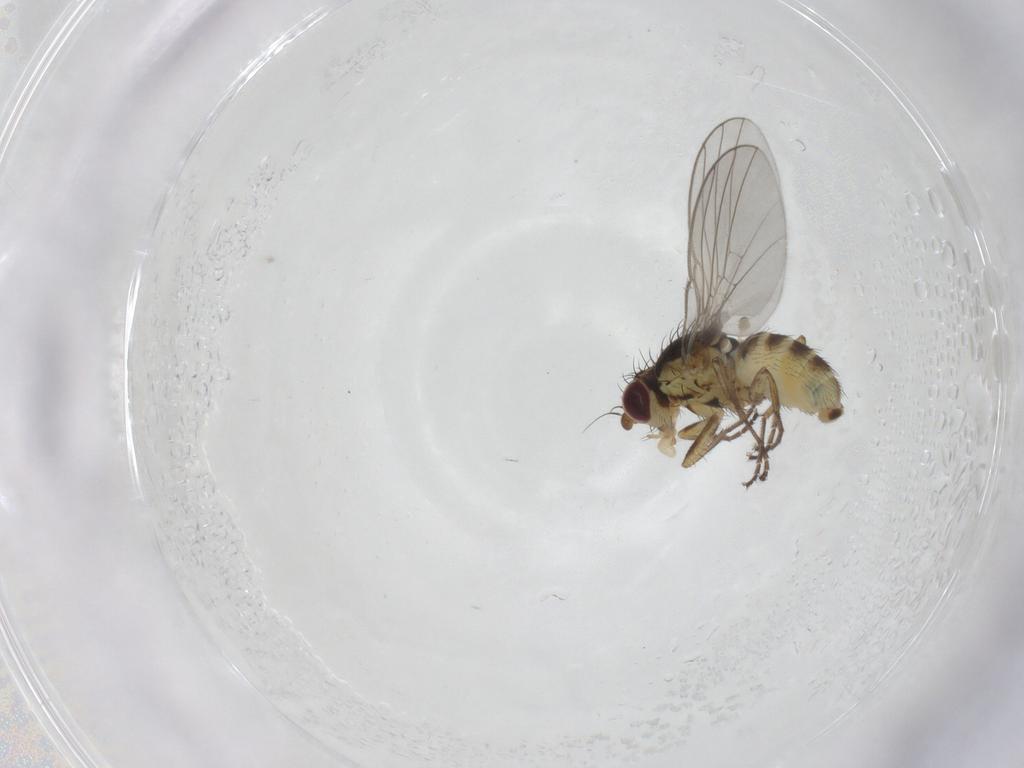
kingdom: Animalia
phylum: Arthropoda
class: Insecta
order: Diptera
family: Agromyzidae
